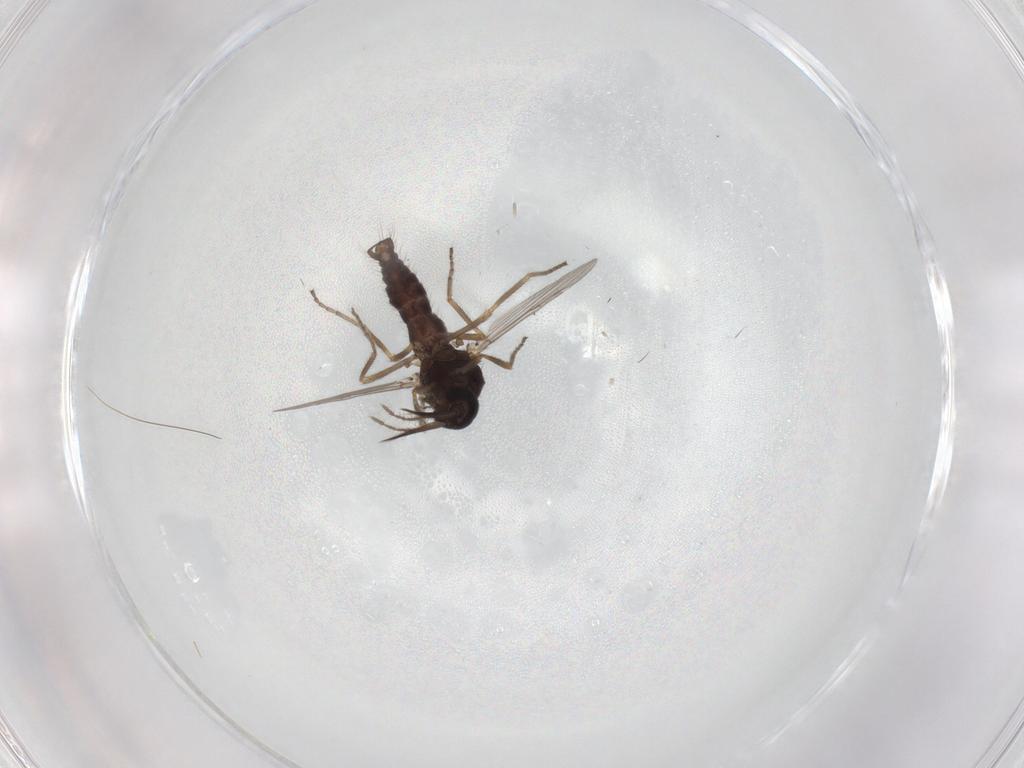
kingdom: Animalia
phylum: Arthropoda
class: Insecta
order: Diptera
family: Ceratopogonidae
